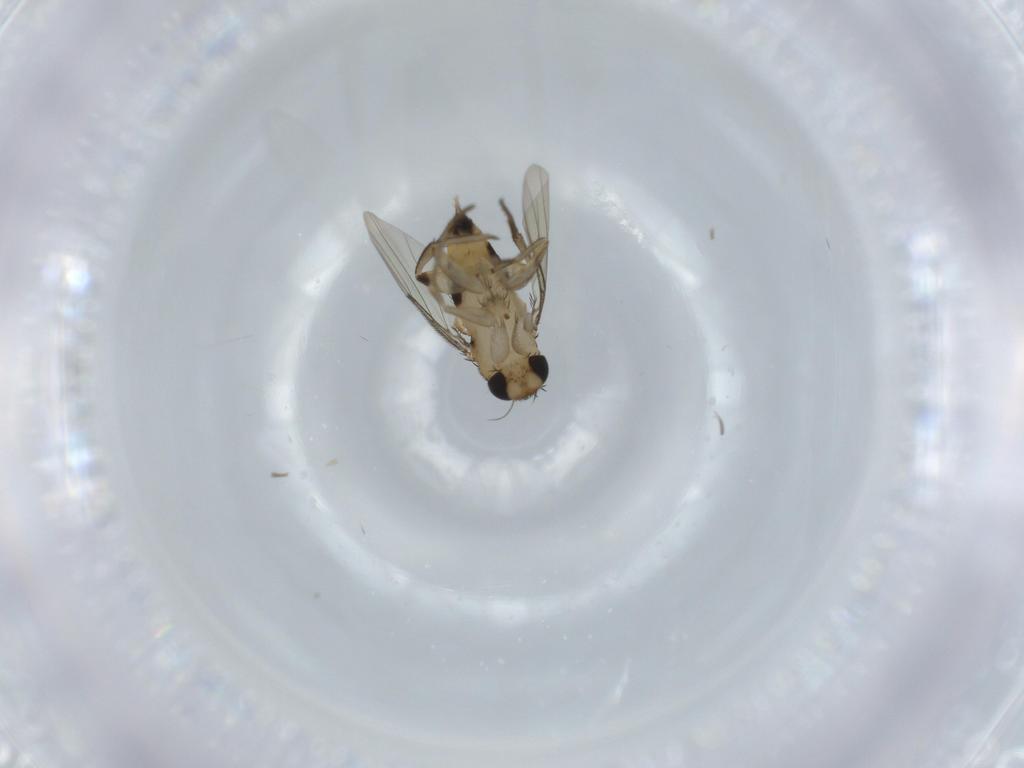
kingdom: Animalia
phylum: Arthropoda
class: Insecta
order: Diptera
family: Phoridae
